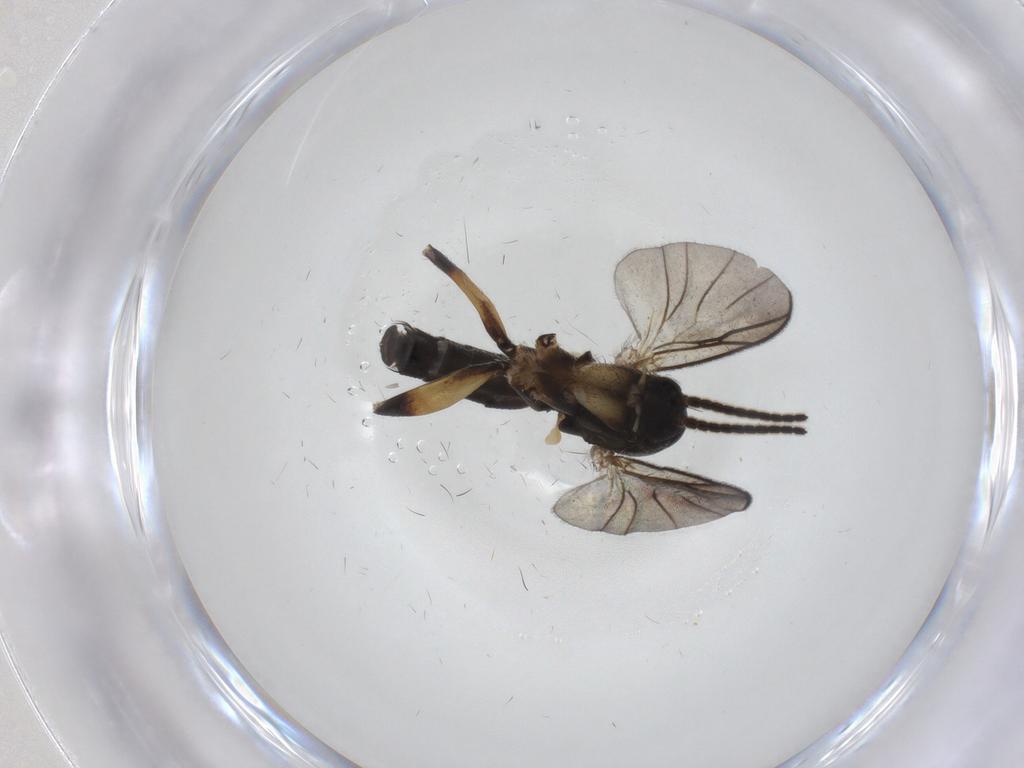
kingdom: Animalia
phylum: Arthropoda
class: Insecta
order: Diptera
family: Mycetophilidae
